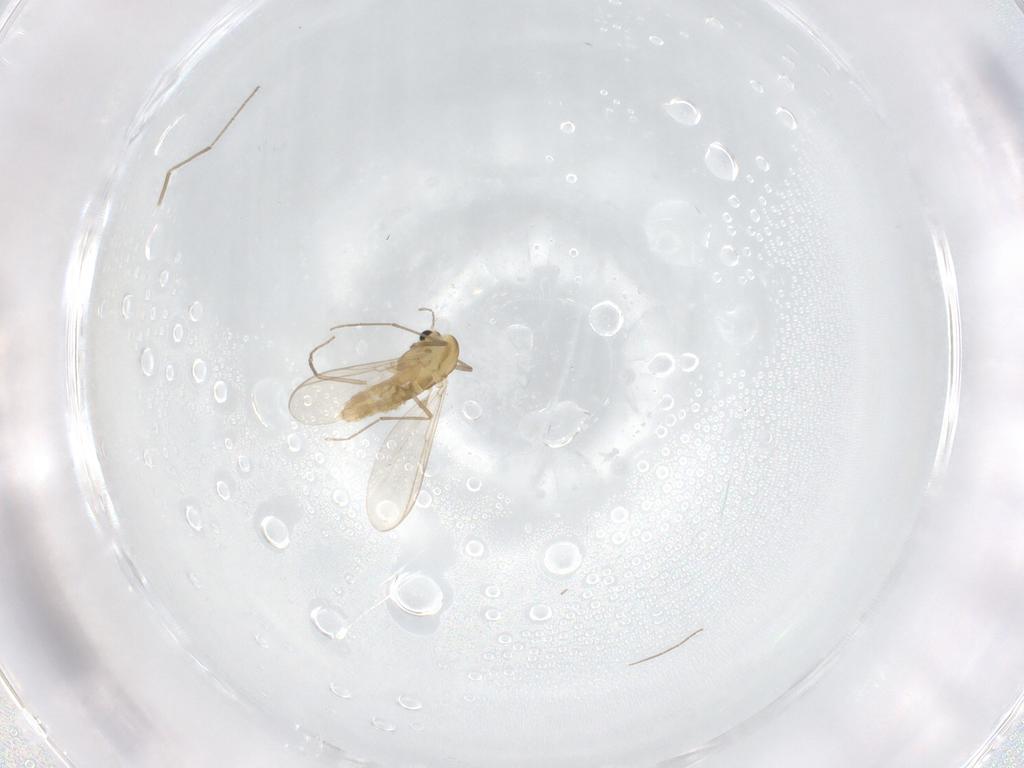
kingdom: Animalia
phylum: Arthropoda
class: Insecta
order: Diptera
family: Chironomidae
